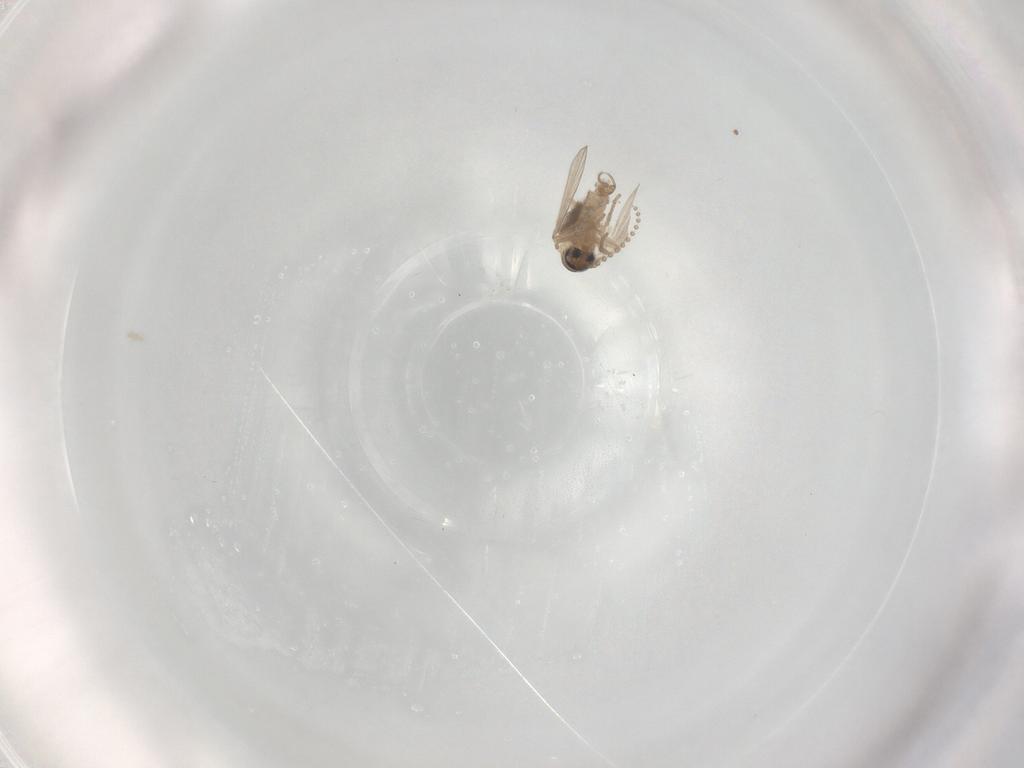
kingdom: Animalia
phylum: Arthropoda
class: Insecta
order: Diptera
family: Psychodidae
